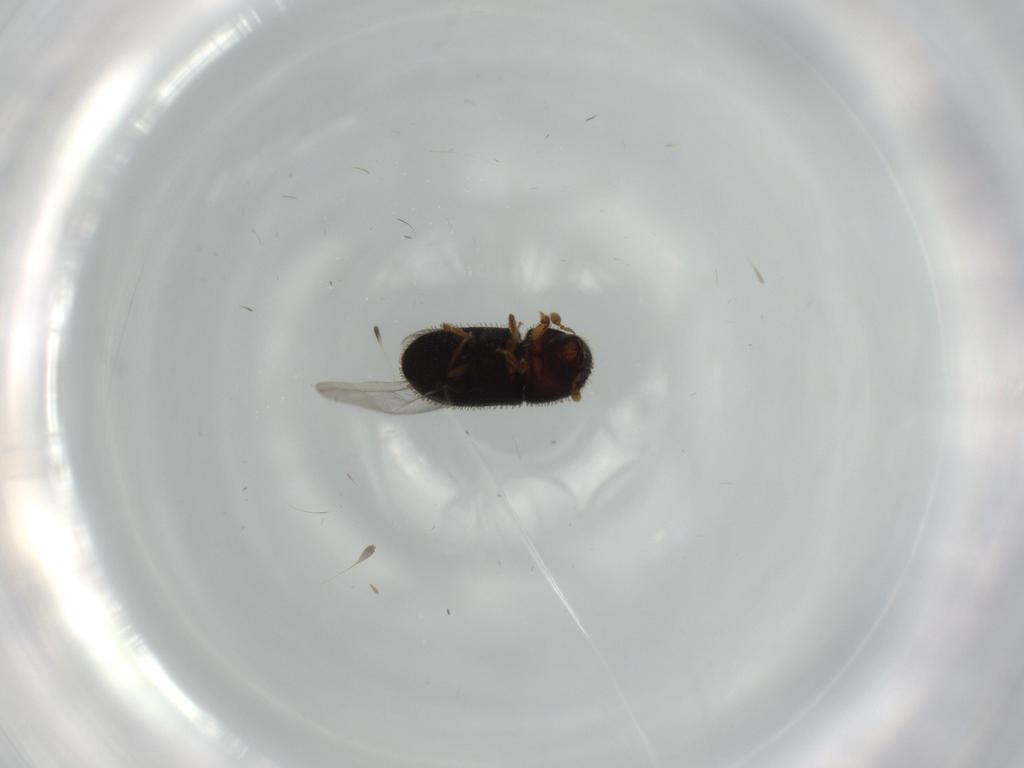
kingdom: Animalia
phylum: Arthropoda
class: Insecta
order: Coleoptera
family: Curculionidae
